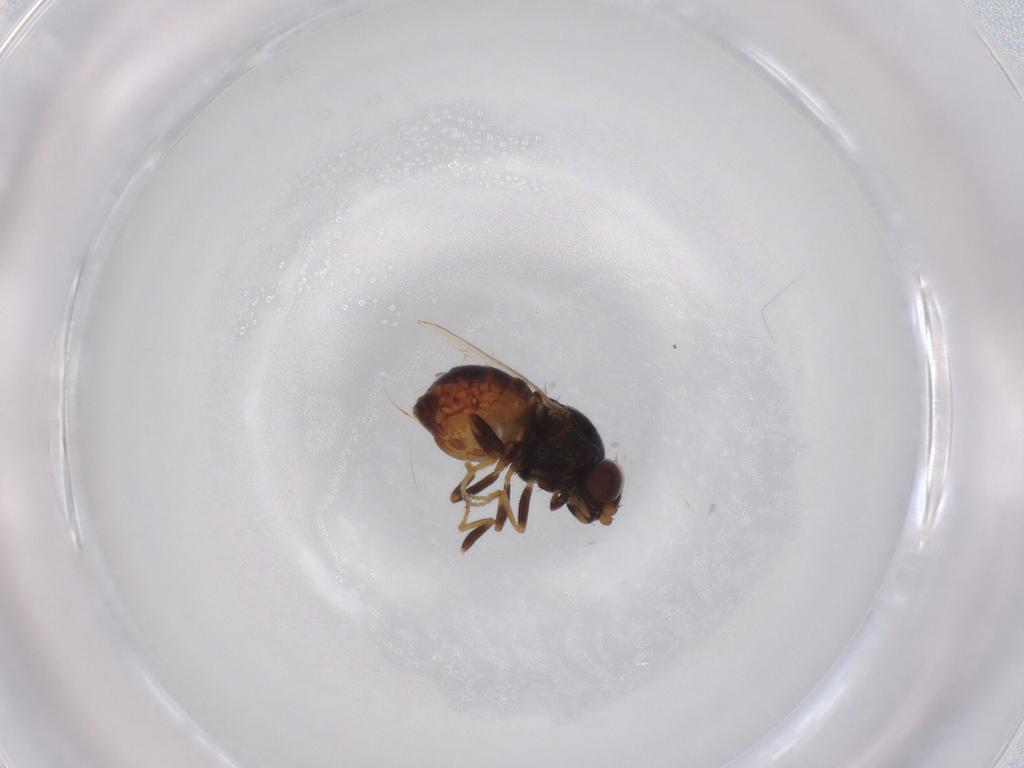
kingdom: Animalia
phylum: Arthropoda
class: Insecta
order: Diptera
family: Chloropidae
